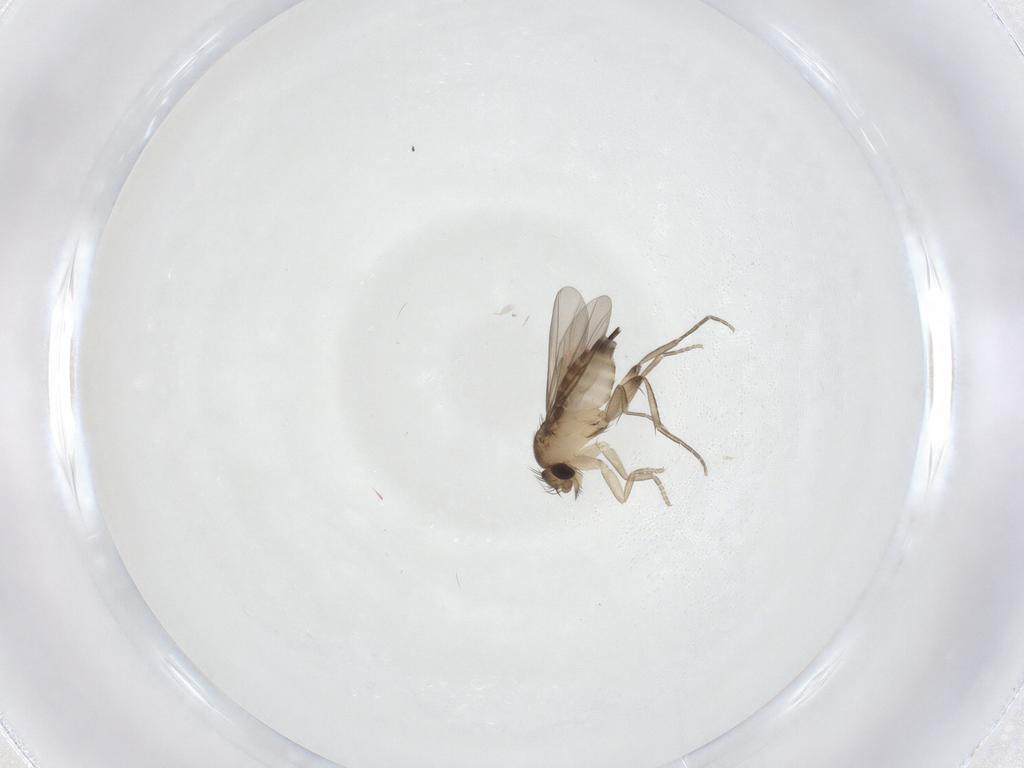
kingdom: Animalia
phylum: Arthropoda
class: Insecta
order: Diptera
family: Phoridae
